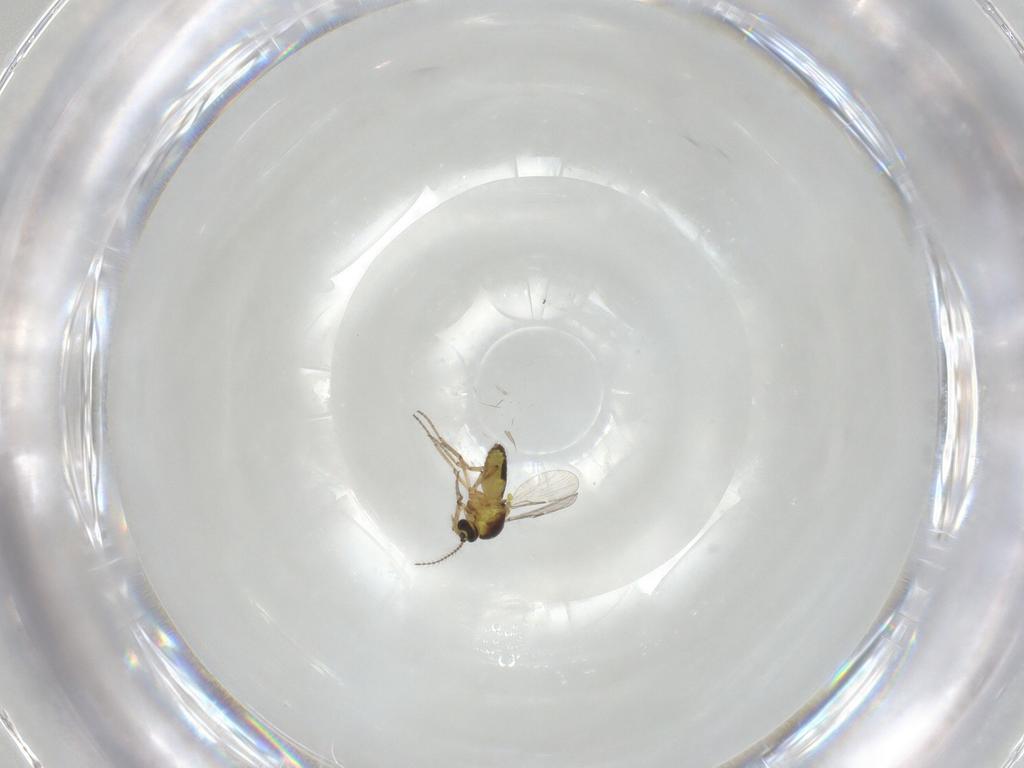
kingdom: Animalia
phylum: Arthropoda
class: Insecta
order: Diptera
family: Ceratopogonidae
